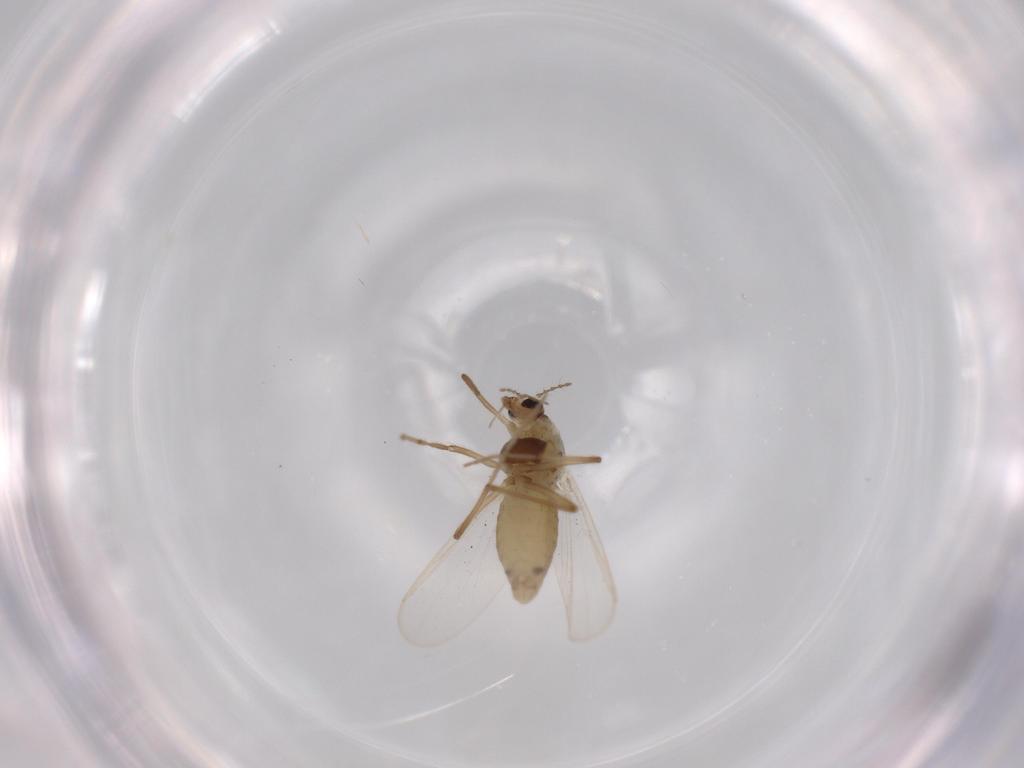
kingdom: Animalia
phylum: Arthropoda
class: Insecta
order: Diptera
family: Chironomidae
